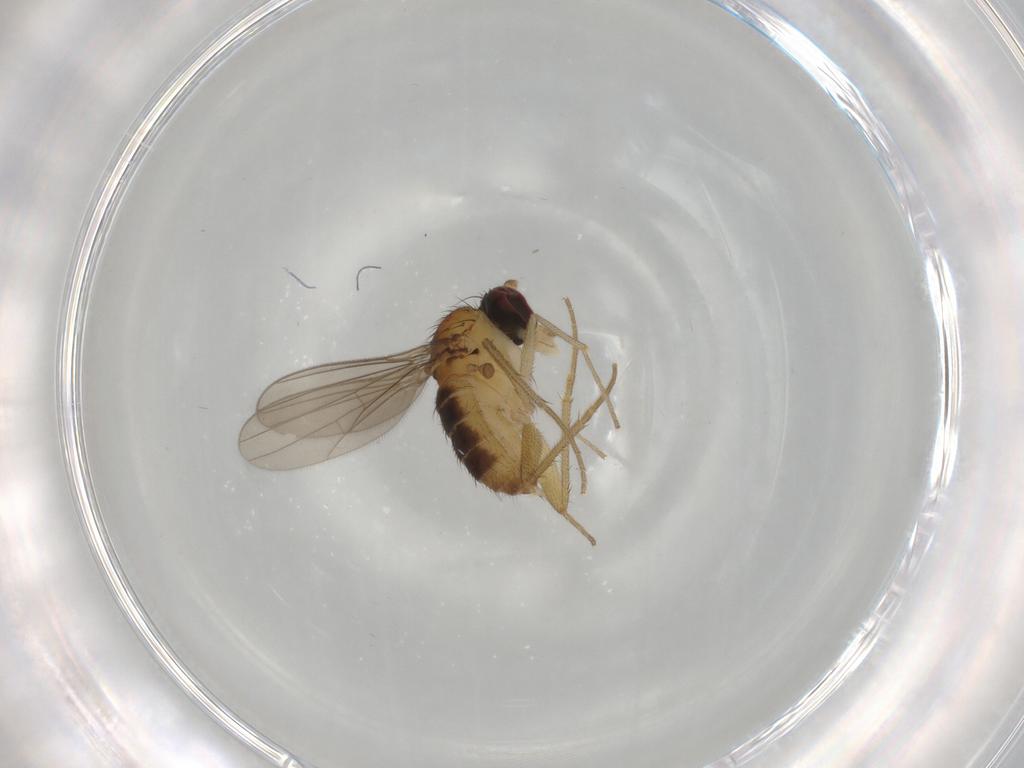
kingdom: Animalia
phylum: Arthropoda
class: Insecta
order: Diptera
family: Dolichopodidae
